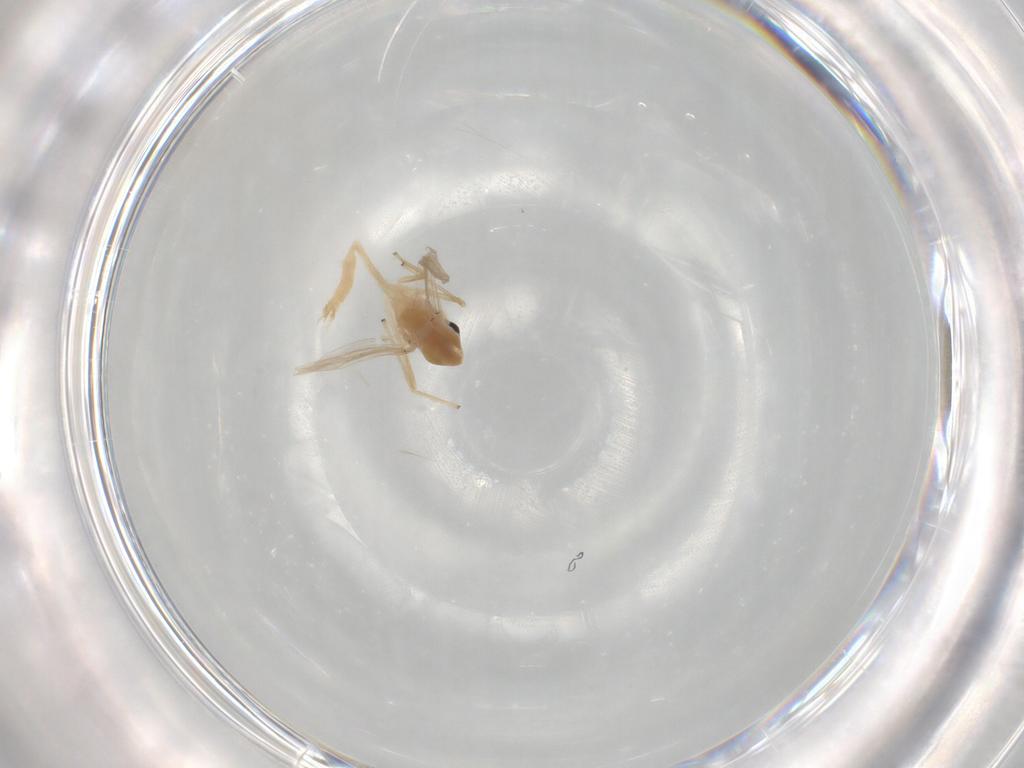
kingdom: Animalia
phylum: Arthropoda
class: Insecta
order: Diptera
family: Chironomidae
